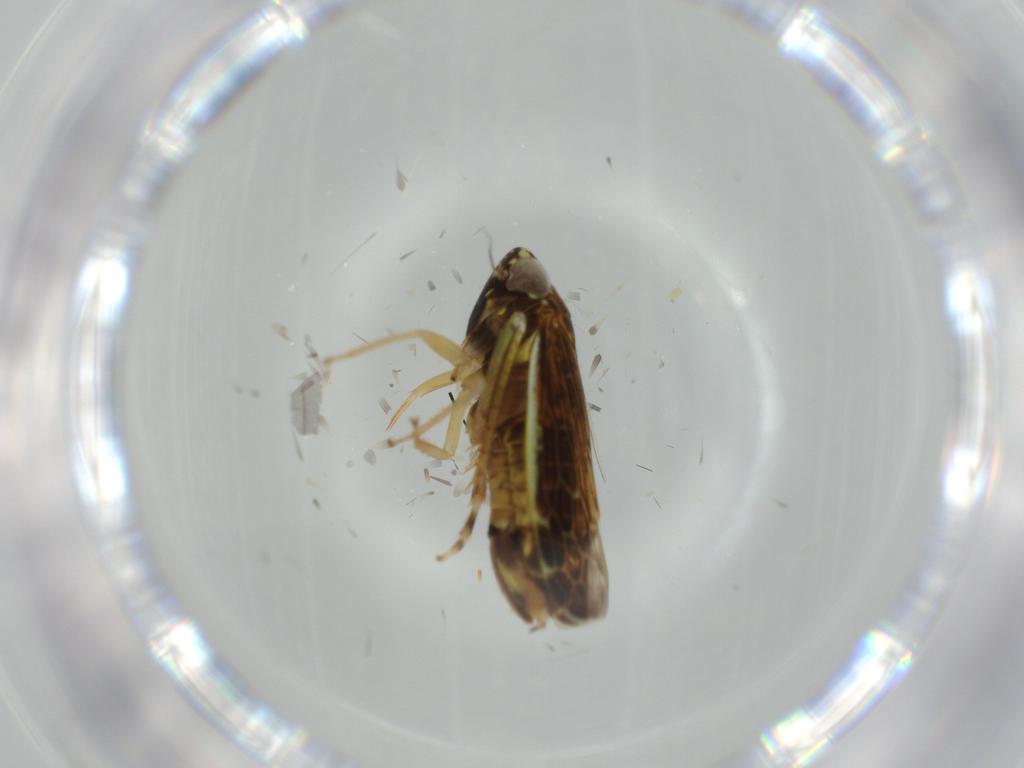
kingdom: Animalia
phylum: Arthropoda
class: Insecta
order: Hemiptera
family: Cicadellidae
